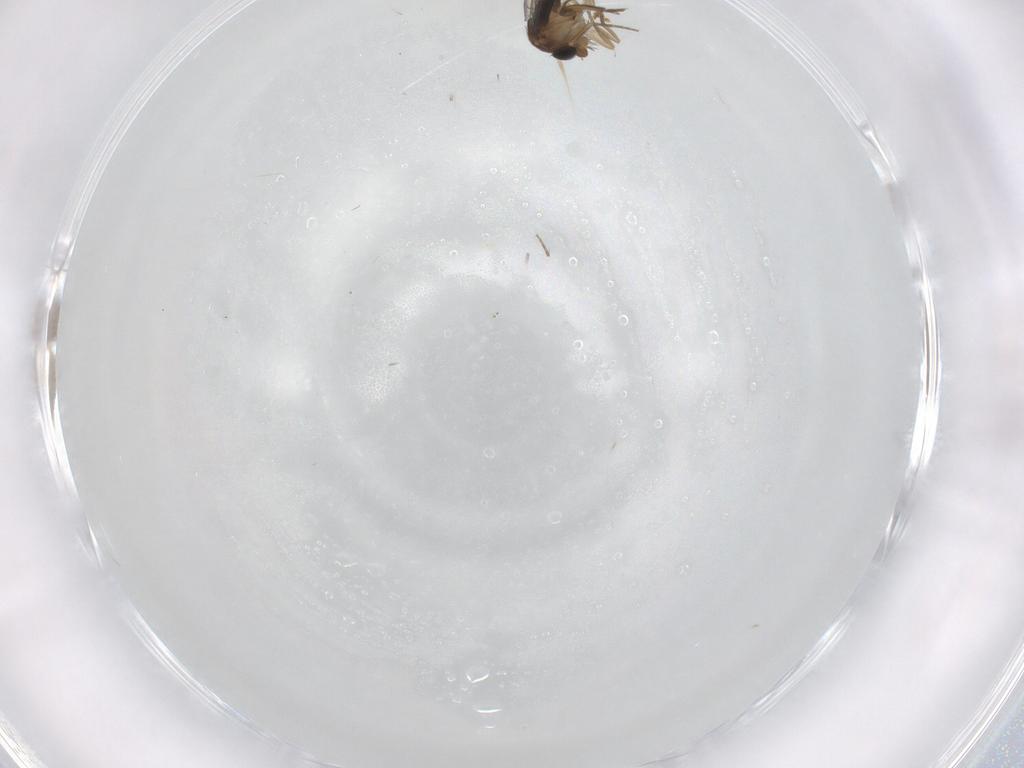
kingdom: Animalia
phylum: Arthropoda
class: Insecta
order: Diptera
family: Chironomidae
